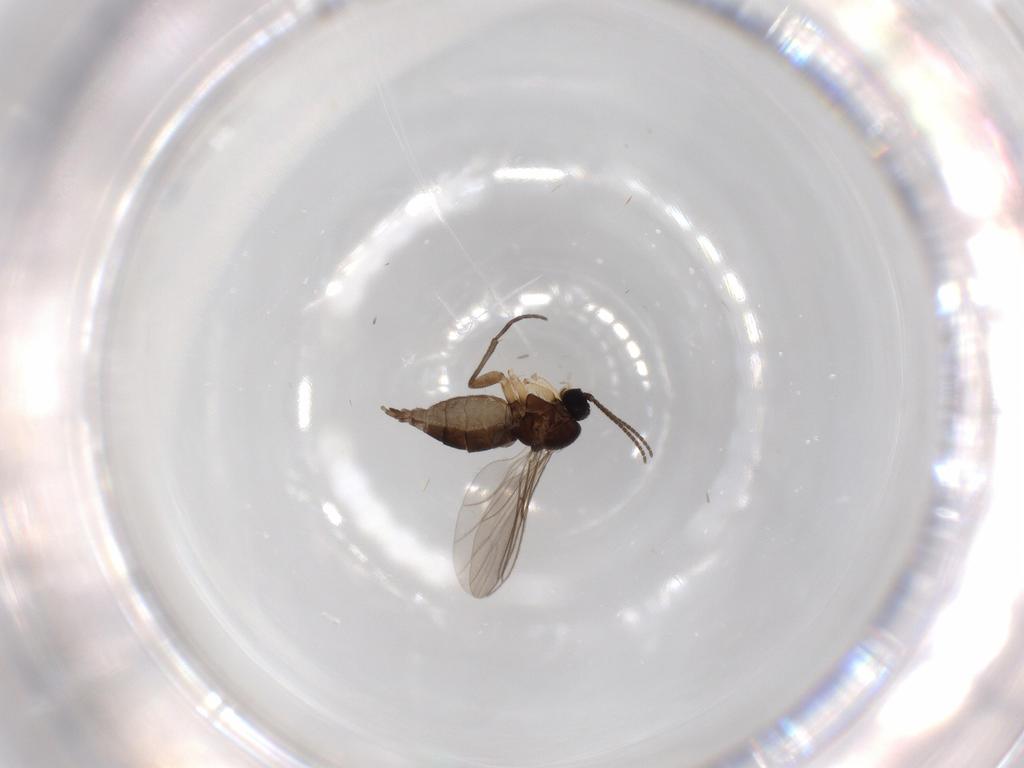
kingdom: Animalia
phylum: Arthropoda
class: Insecta
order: Diptera
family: Sciaridae
